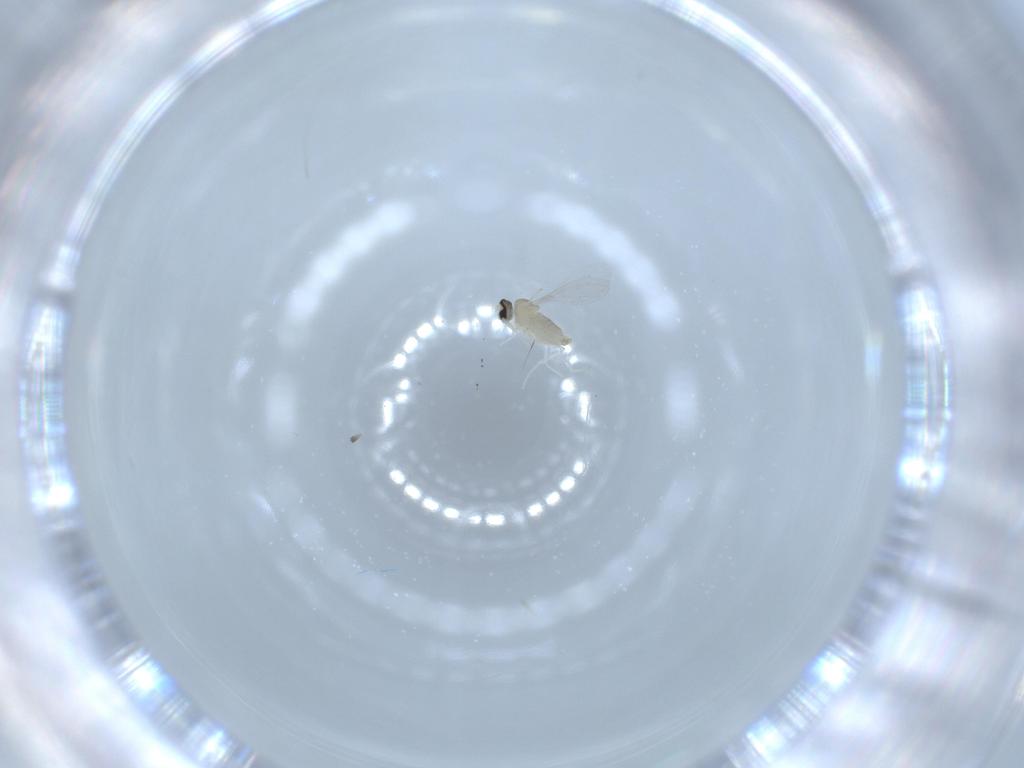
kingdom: Animalia
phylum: Arthropoda
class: Insecta
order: Diptera
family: Cecidomyiidae
